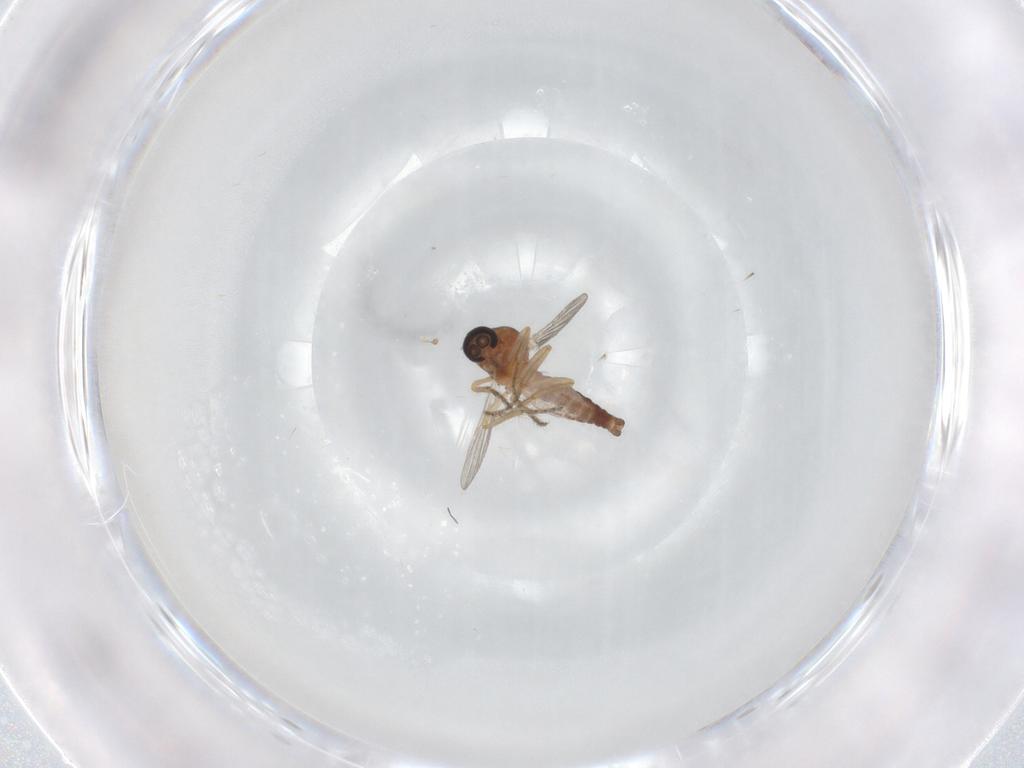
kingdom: Animalia
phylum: Arthropoda
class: Insecta
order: Diptera
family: Ceratopogonidae
